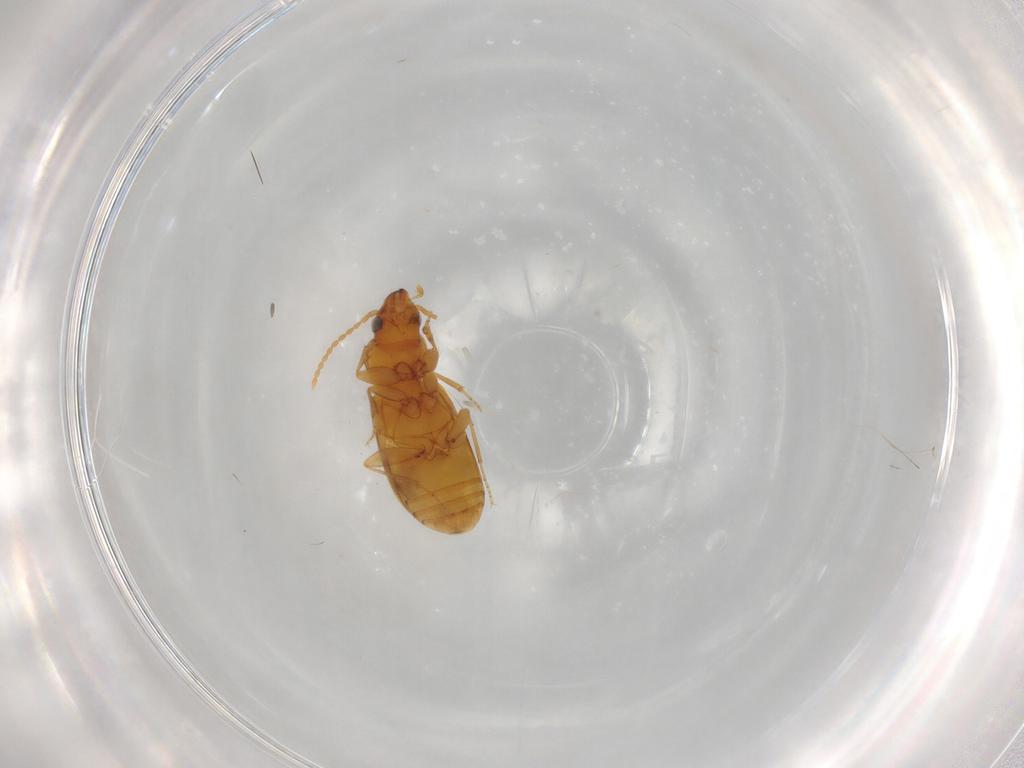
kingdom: Animalia
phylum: Arthropoda
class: Insecta
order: Coleoptera
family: Carabidae
